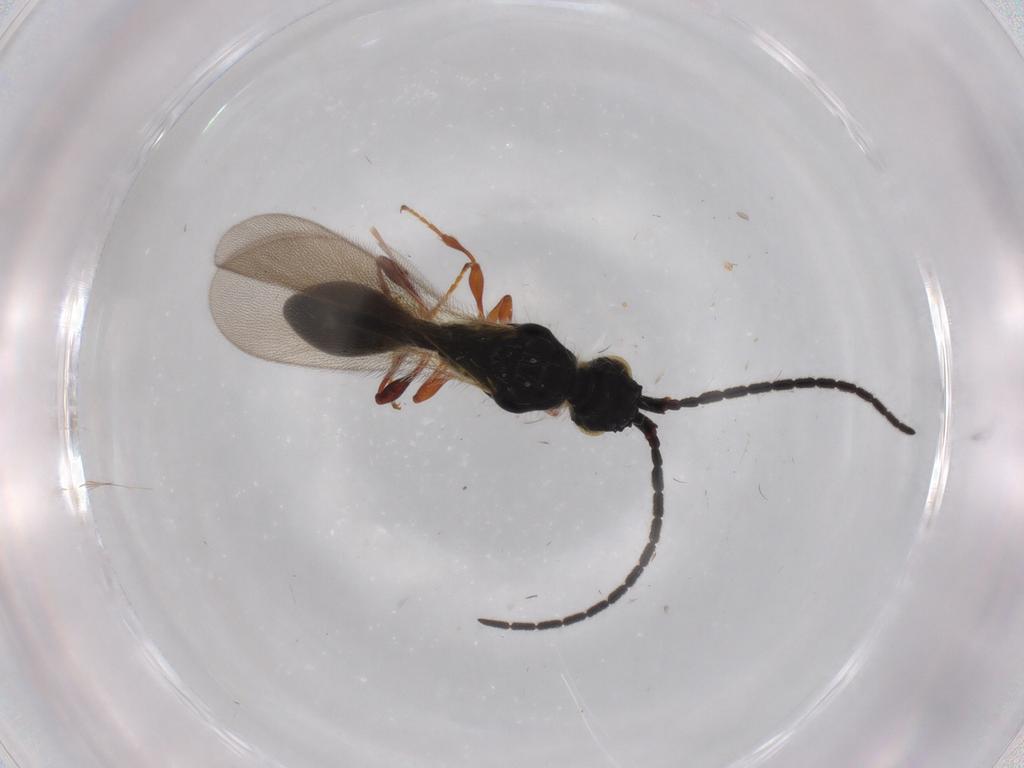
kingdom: Animalia
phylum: Arthropoda
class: Insecta
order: Hymenoptera
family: Diapriidae
